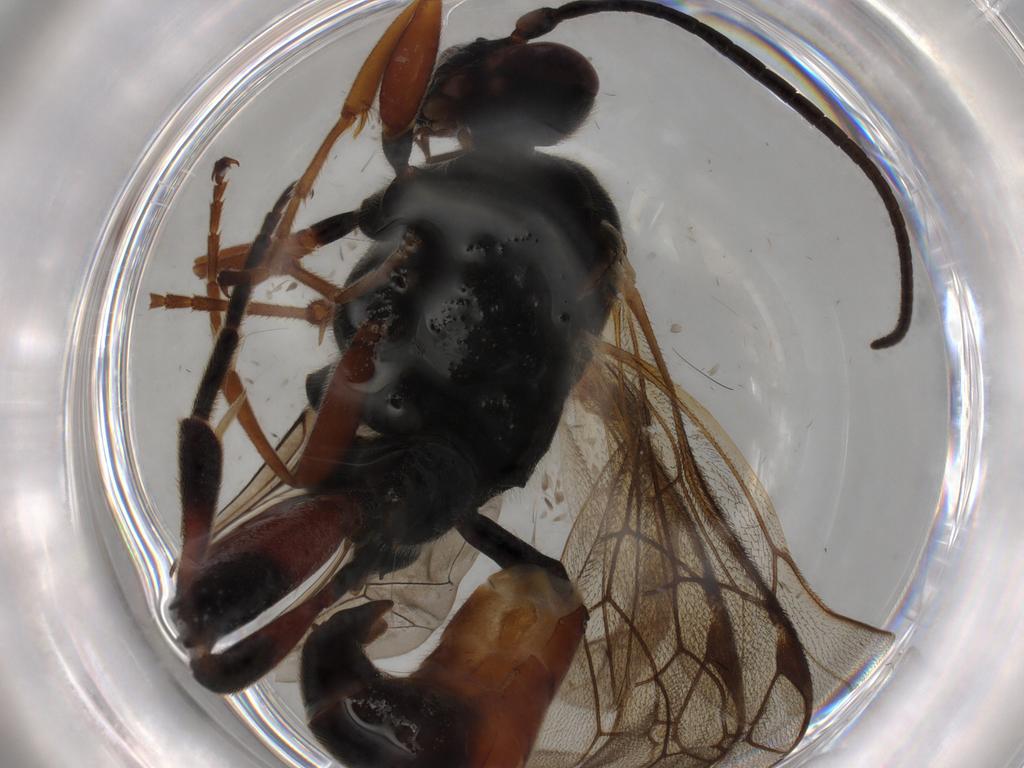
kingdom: Animalia
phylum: Arthropoda
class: Insecta
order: Hymenoptera
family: Ichneumonidae
